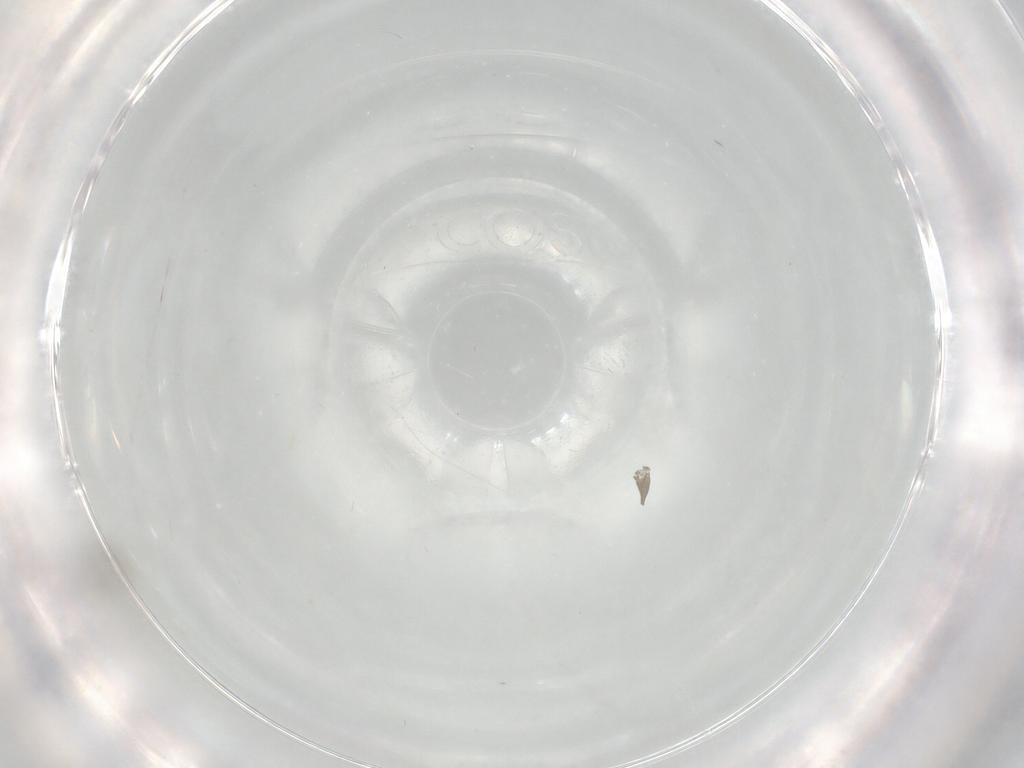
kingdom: Animalia
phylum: Arthropoda
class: Insecta
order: Diptera
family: Sciaridae
